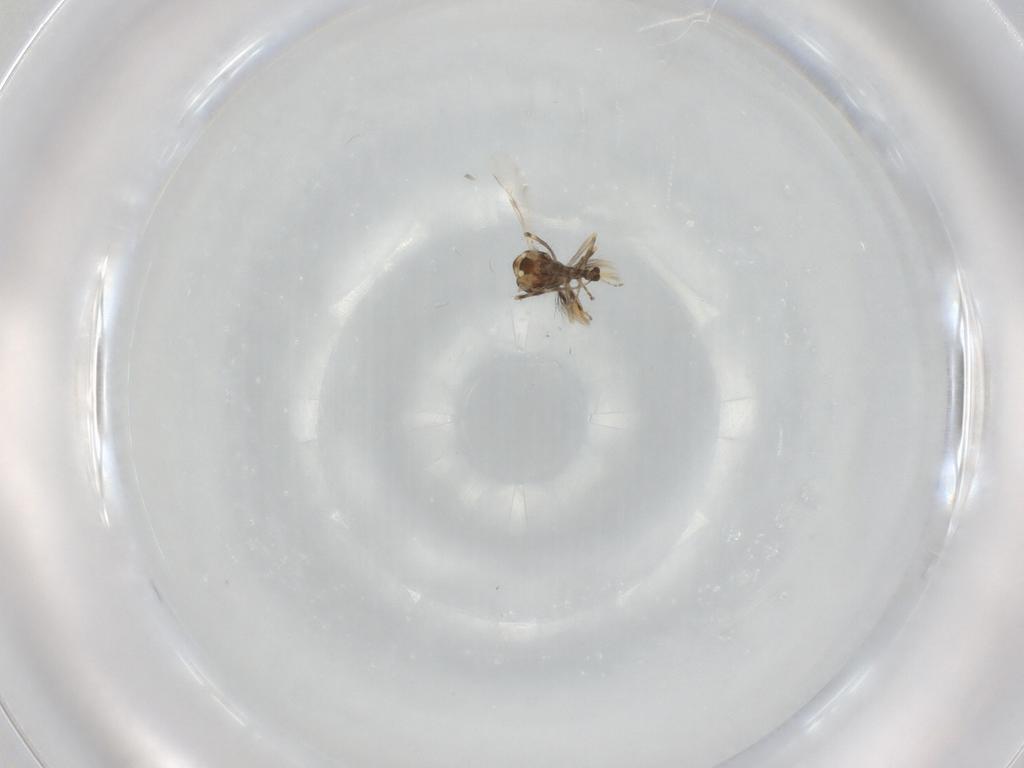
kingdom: Animalia
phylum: Arthropoda
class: Insecta
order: Diptera
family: Ceratopogonidae
